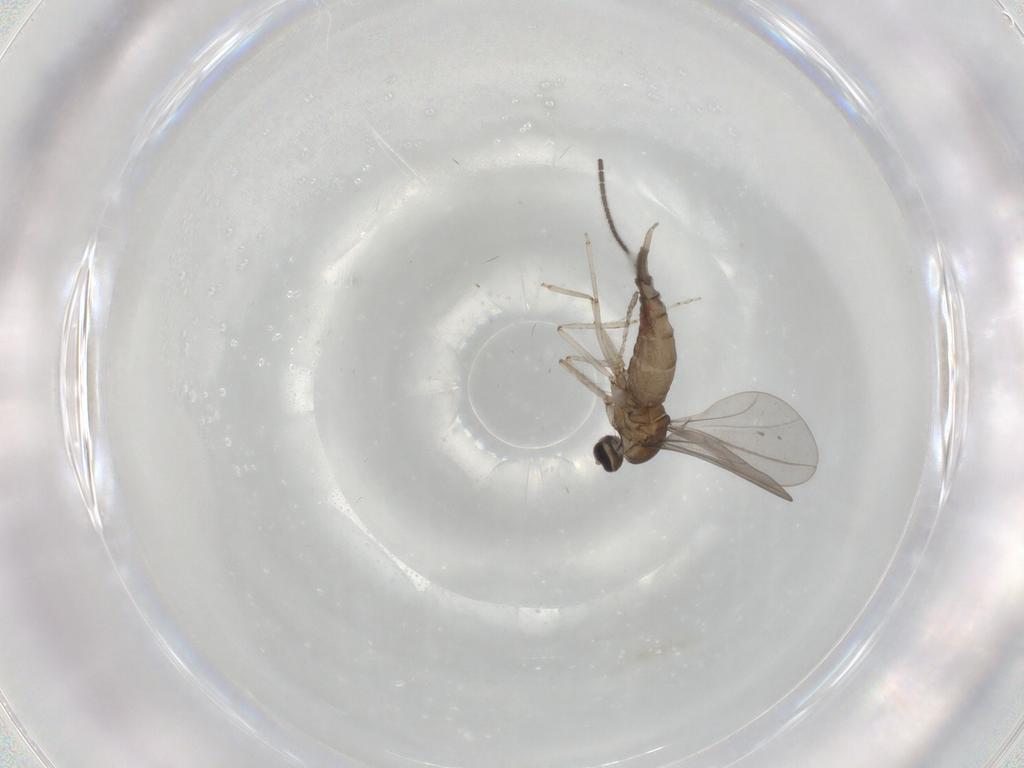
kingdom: Animalia
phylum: Arthropoda
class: Insecta
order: Diptera
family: Cecidomyiidae
